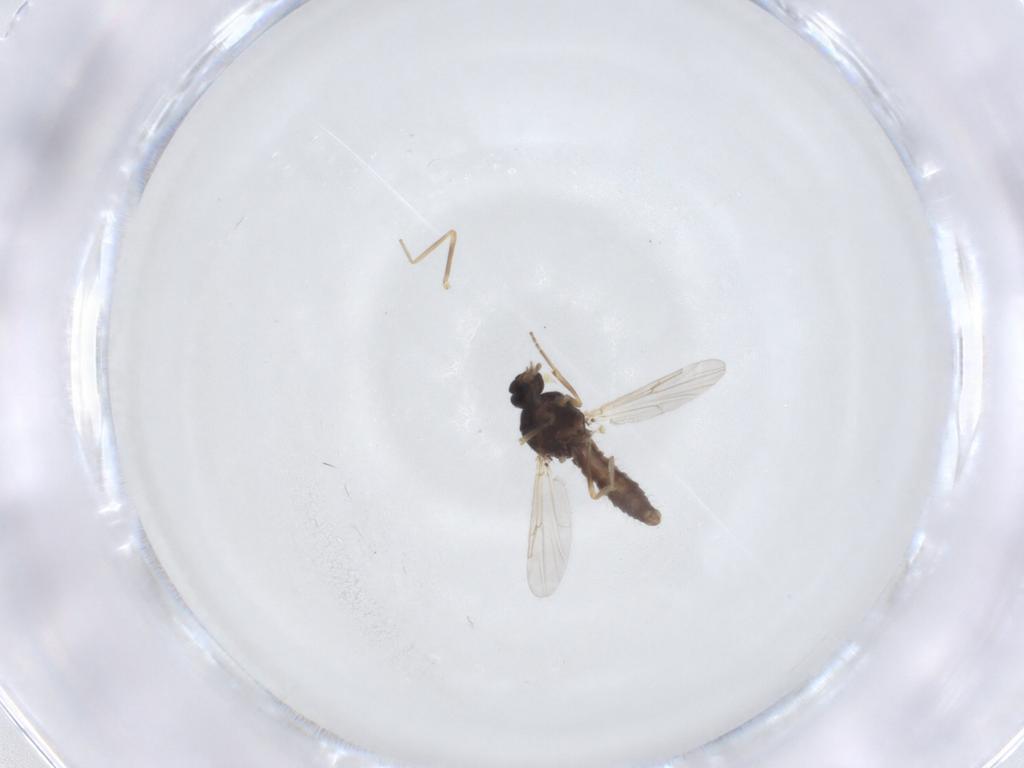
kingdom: Animalia
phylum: Arthropoda
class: Insecta
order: Diptera
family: Ceratopogonidae
